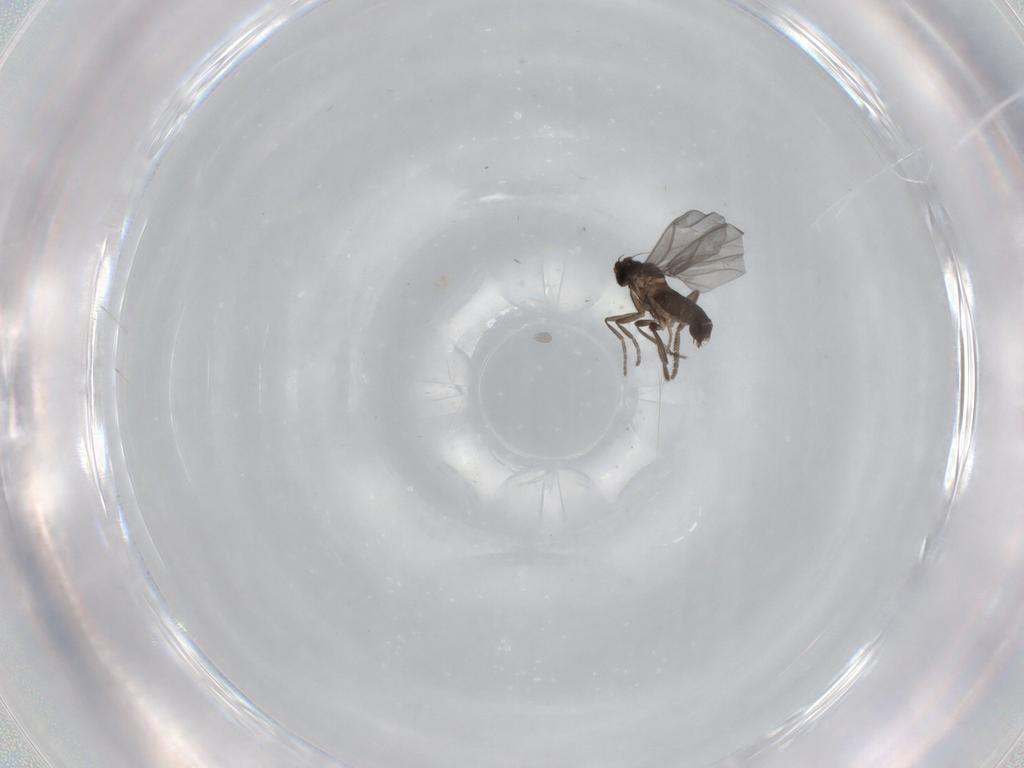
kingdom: Animalia
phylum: Arthropoda
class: Insecta
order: Diptera
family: Phoridae
